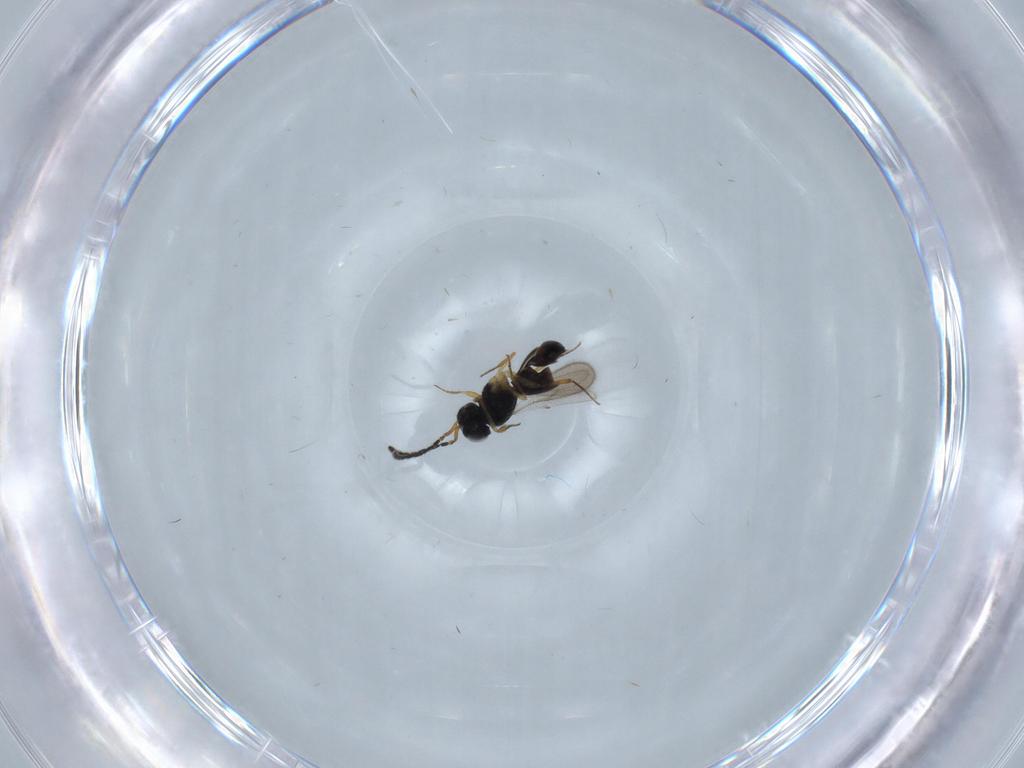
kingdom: Animalia
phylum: Arthropoda
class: Insecta
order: Hymenoptera
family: Scelionidae
